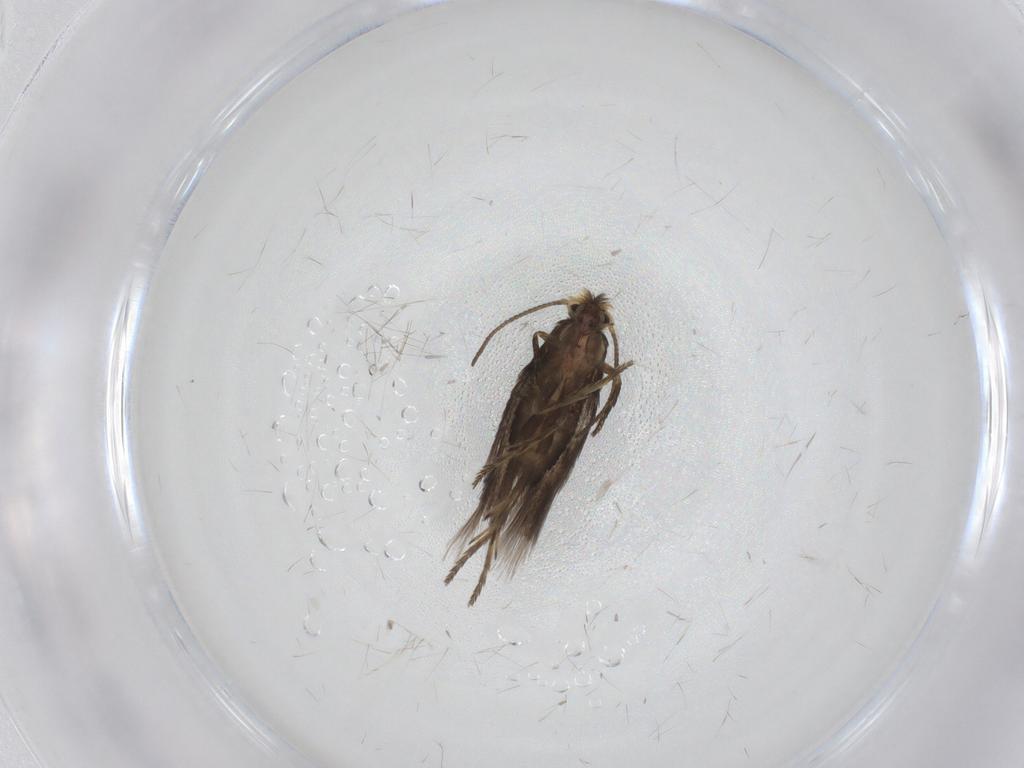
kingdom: Animalia
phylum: Arthropoda
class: Insecta
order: Lepidoptera
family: Nepticulidae
